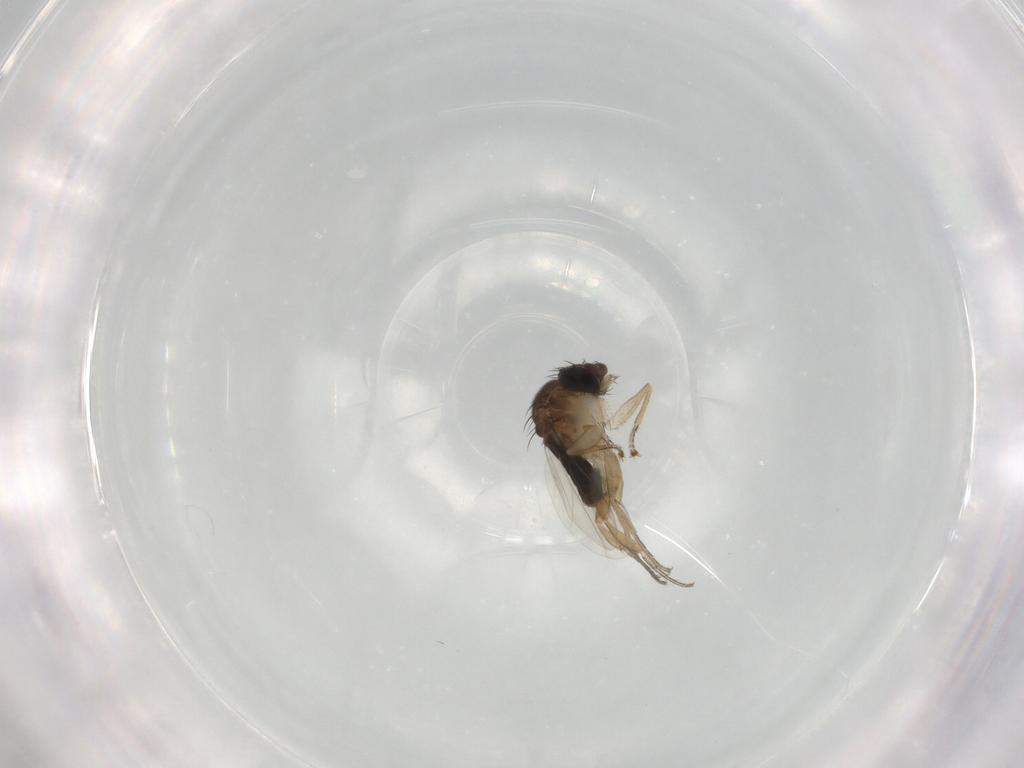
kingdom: Animalia
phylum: Arthropoda
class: Insecta
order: Diptera
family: Phoridae
